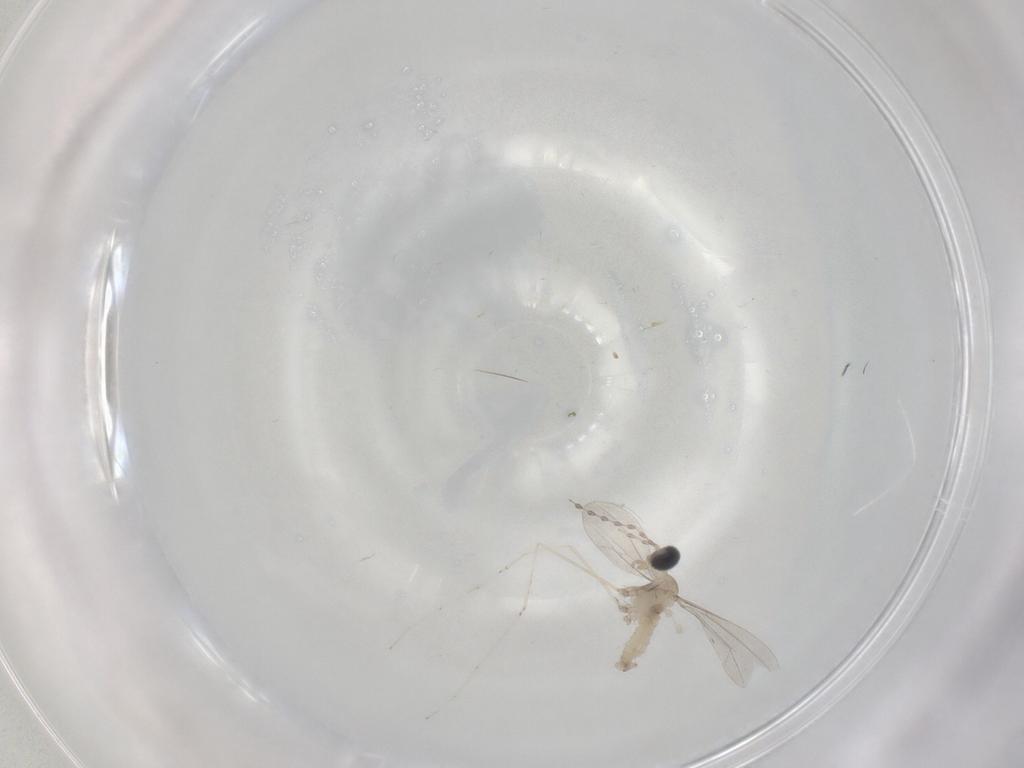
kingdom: Animalia
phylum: Arthropoda
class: Insecta
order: Diptera
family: Cecidomyiidae
